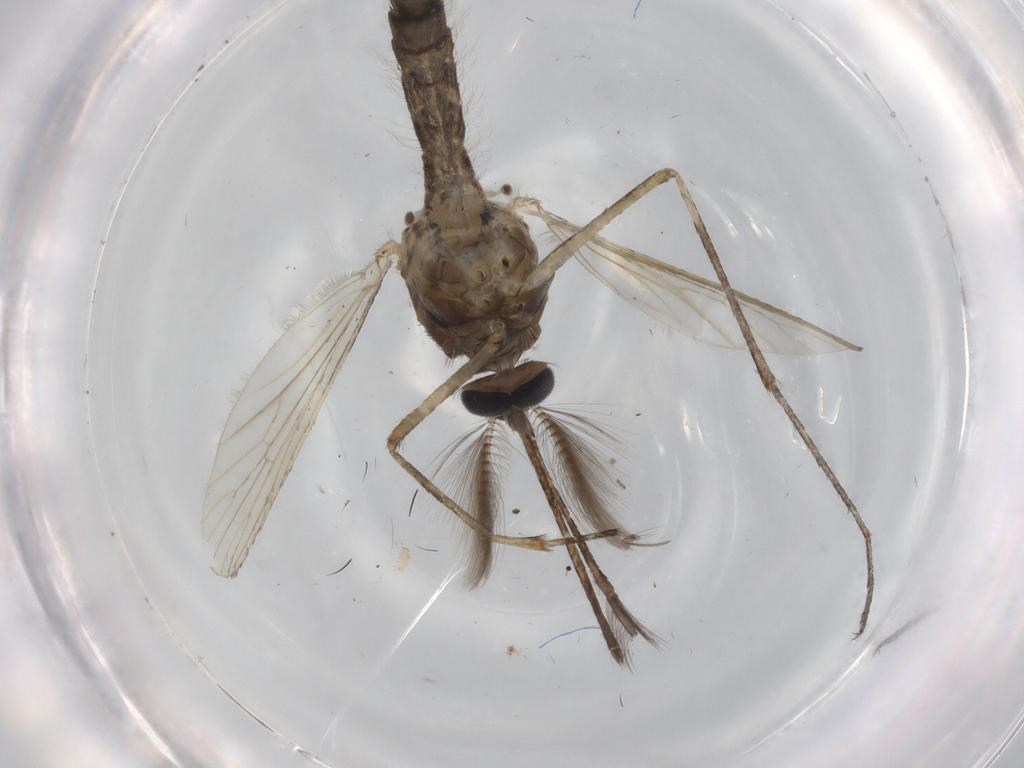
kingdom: Animalia
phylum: Arthropoda
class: Insecta
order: Diptera
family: Cecidomyiidae
